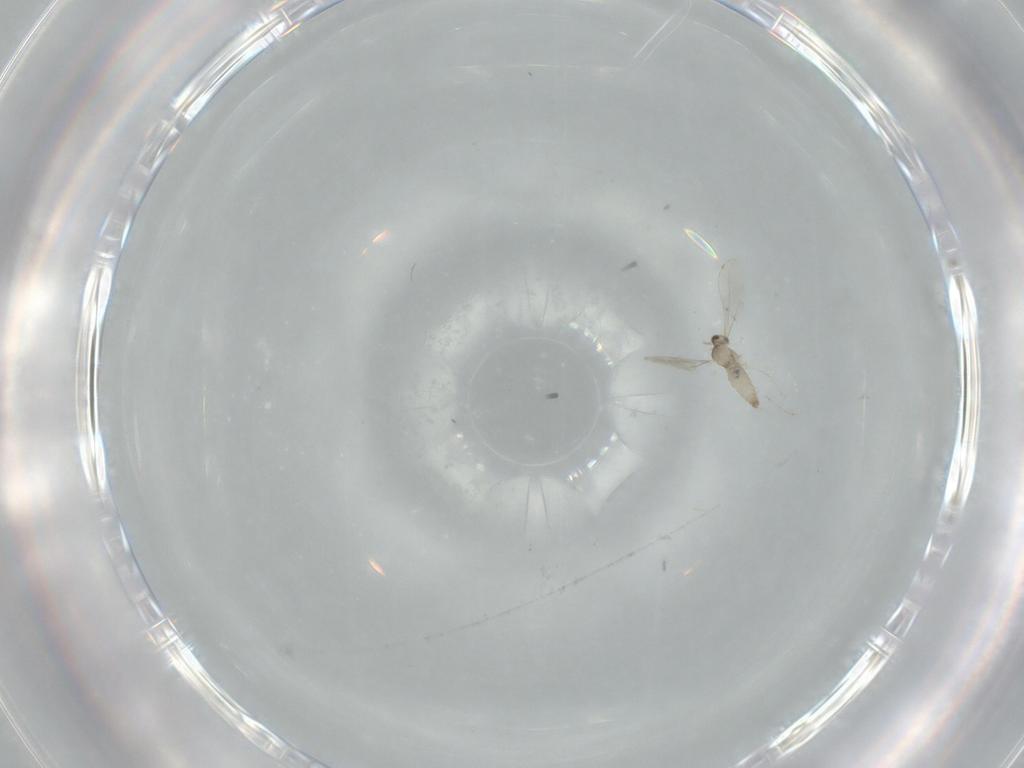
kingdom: Animalia
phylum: Arthropoda
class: Insecta
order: Diptera
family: Cecidomyiidae
